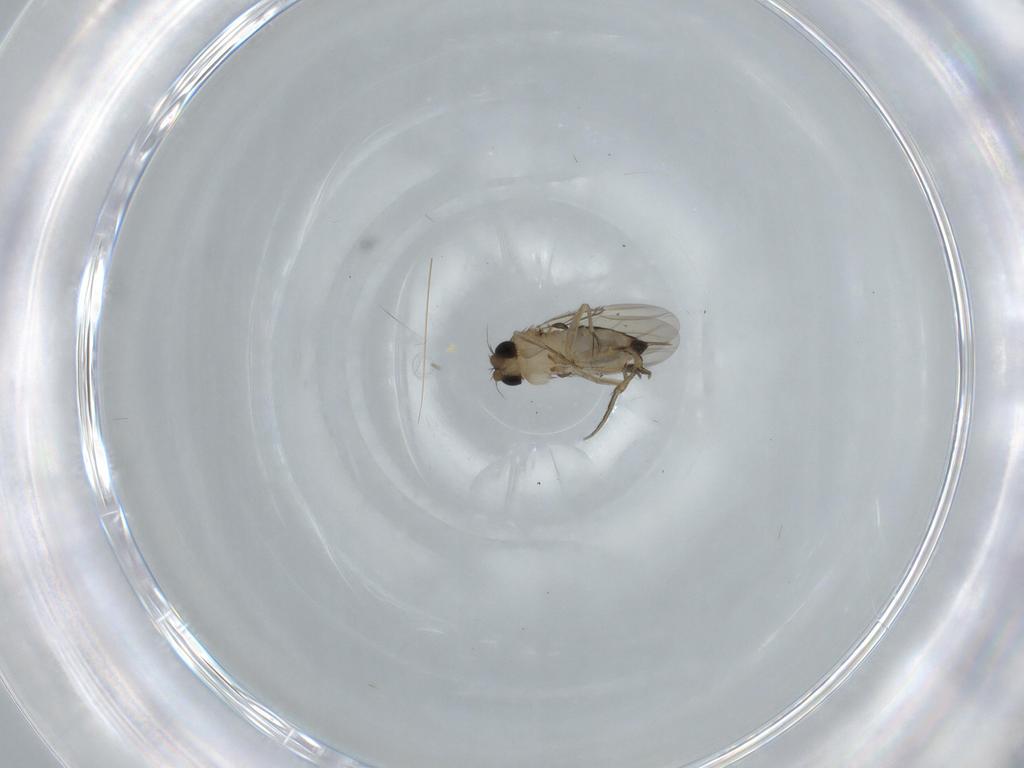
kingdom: Animalia
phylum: Arthropoda
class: Insecta
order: Diptera
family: Phoridae
